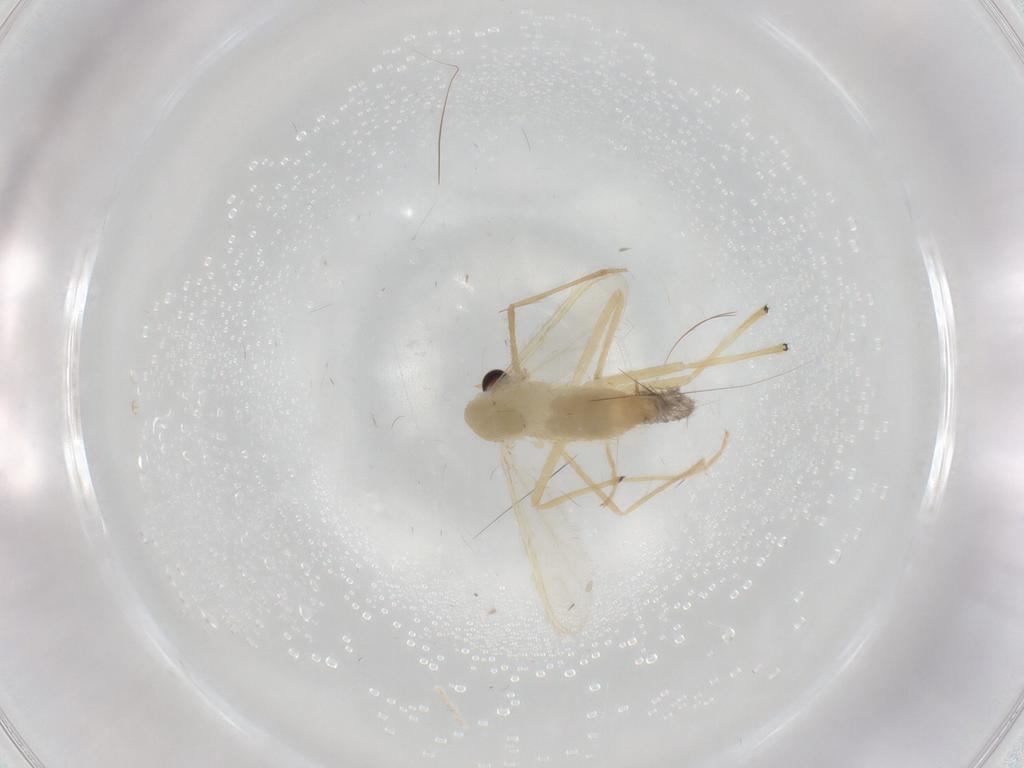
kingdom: Animalia
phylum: Arthropoda
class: Insecta
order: Diptera
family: Chironomidae
